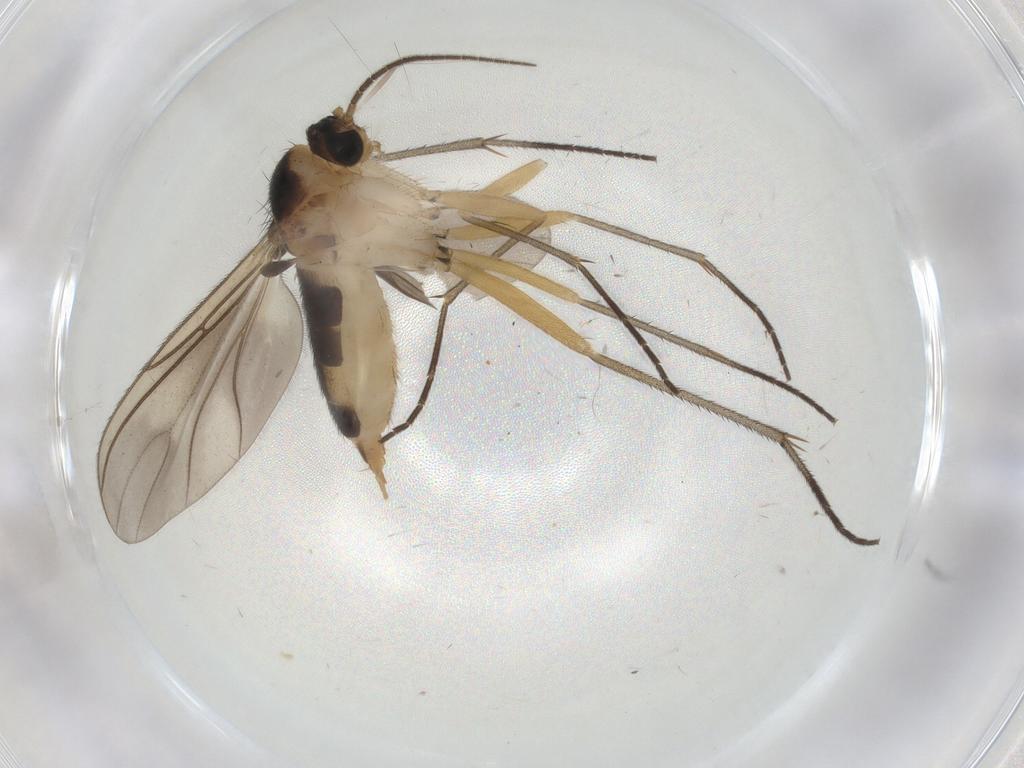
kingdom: Animalia
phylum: Arthropoda
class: Insecta
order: Diptera
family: Sciaridae
